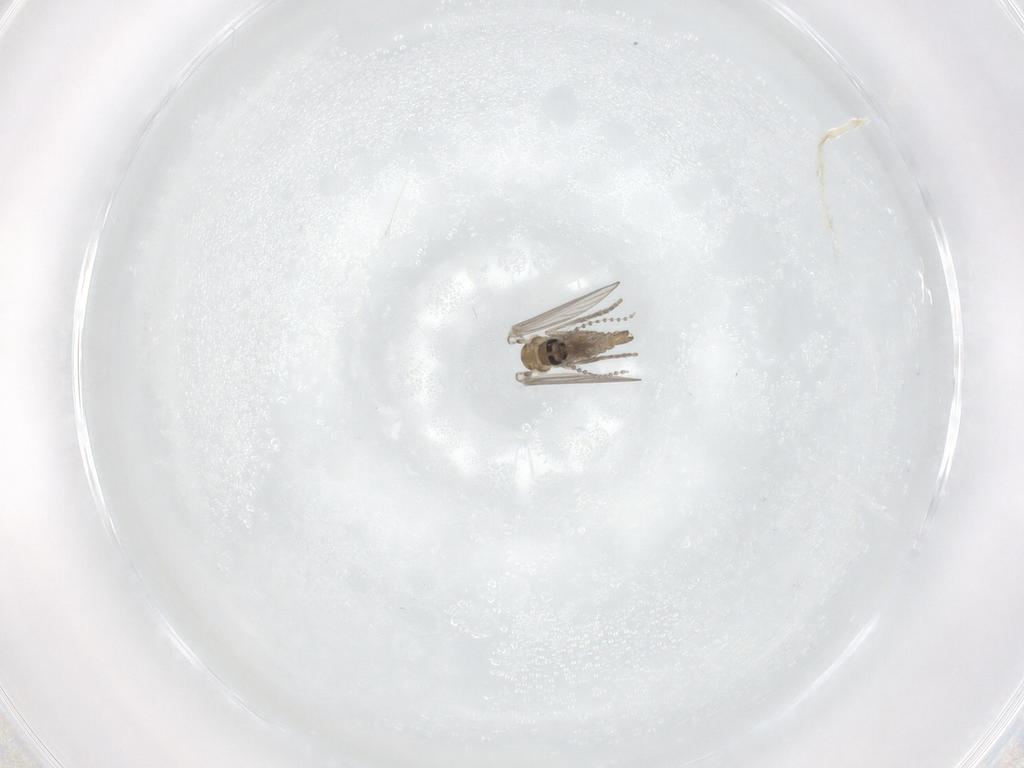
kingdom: Animalia
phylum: Arthropoda
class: Insecta
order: Diptera
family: Psychodidae
